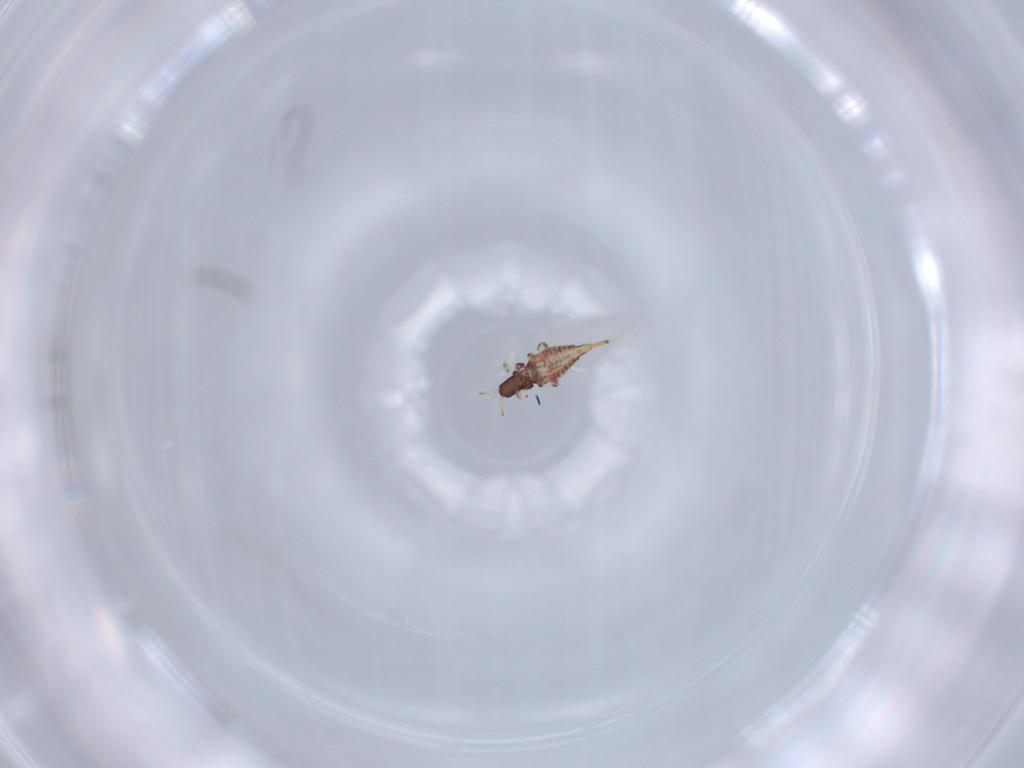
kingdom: Animalia
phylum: Arthropoda
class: Insecta
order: Thysanoptera
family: Phlaeothripidae
